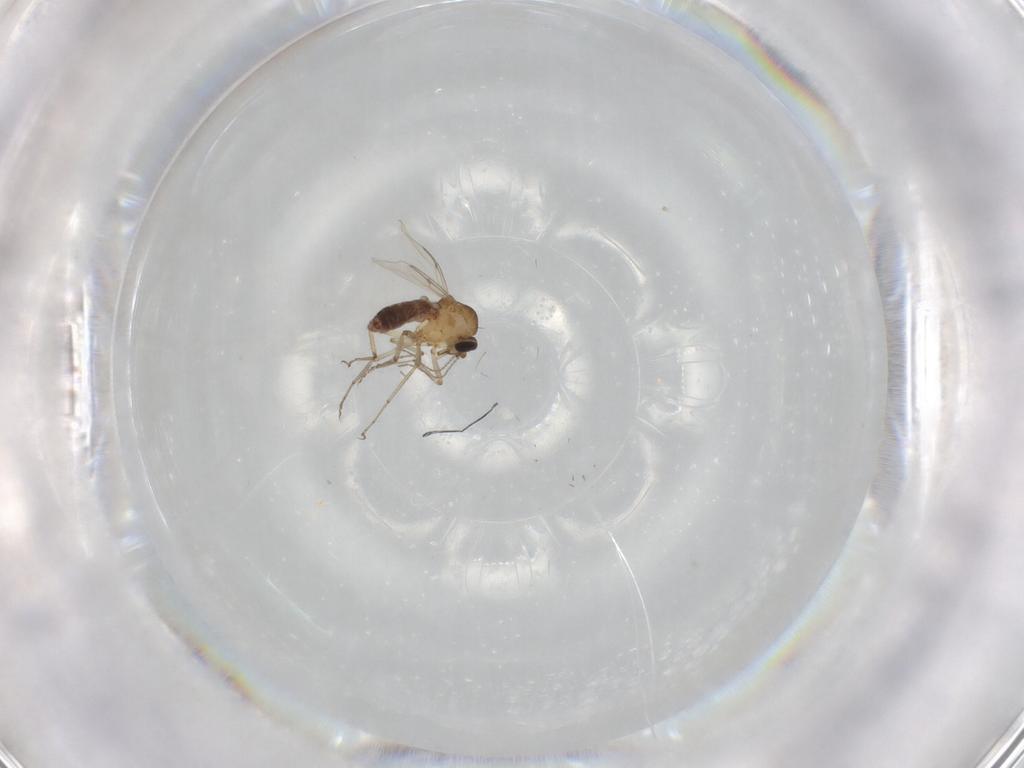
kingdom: Animalia
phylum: Arthropoda
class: Insecta
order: Diptera
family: Ceratopogonidae
